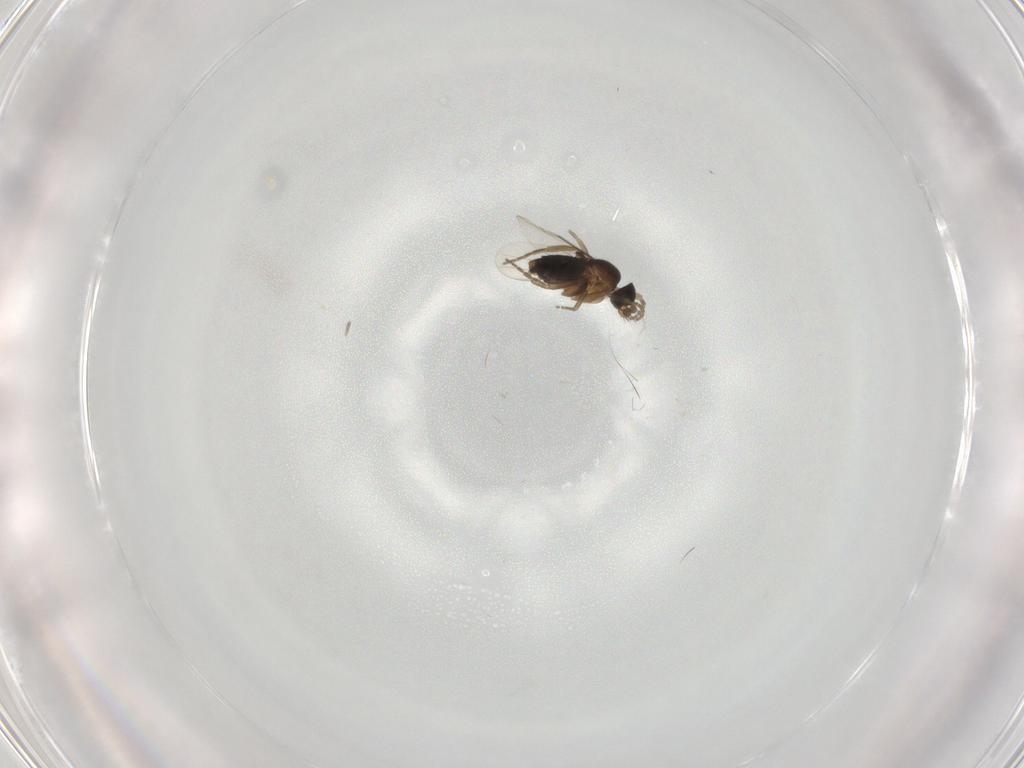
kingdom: Animalia
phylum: Arthropoda
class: Insecta
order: Diptera
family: Phoridae
